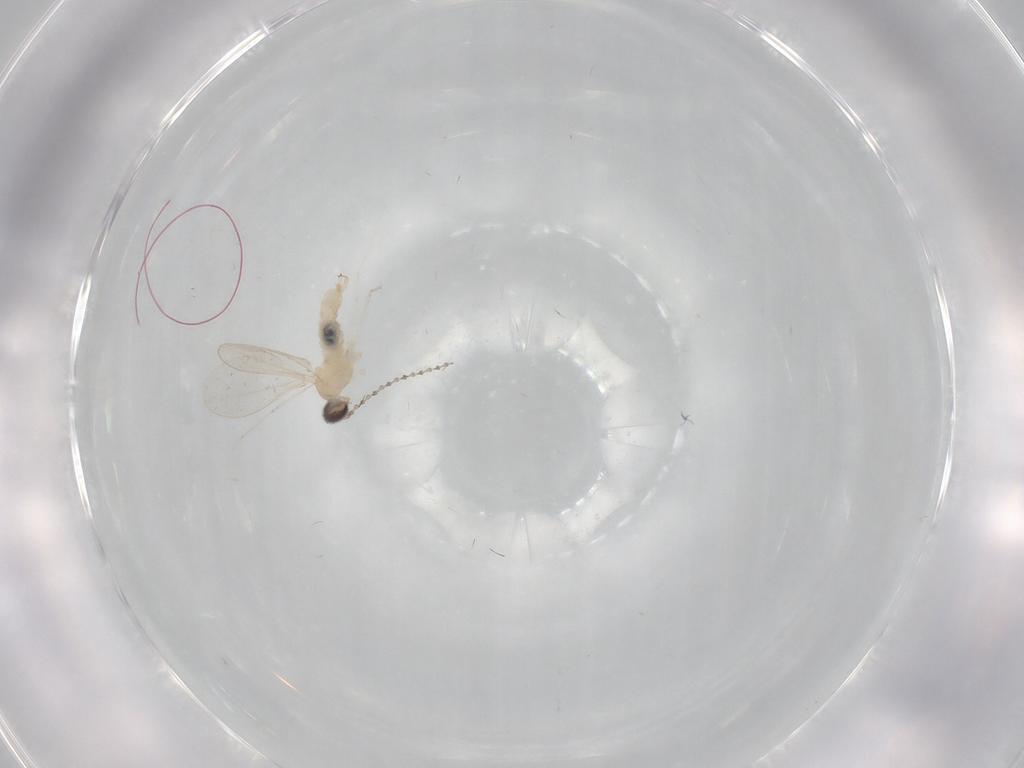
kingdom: Animalia
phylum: Arthropoda
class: Insecta
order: Diptera
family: Cecidomyiidae
